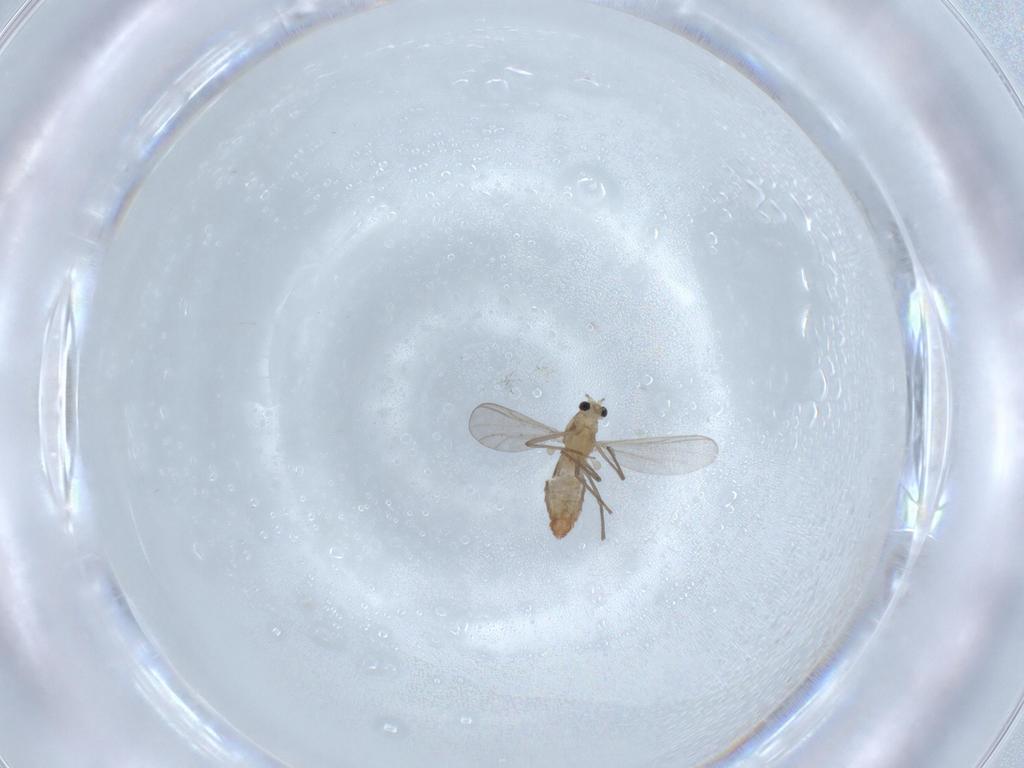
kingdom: Animalia
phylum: Arthropoda
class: Insecta
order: Diptera
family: Chironomidae
